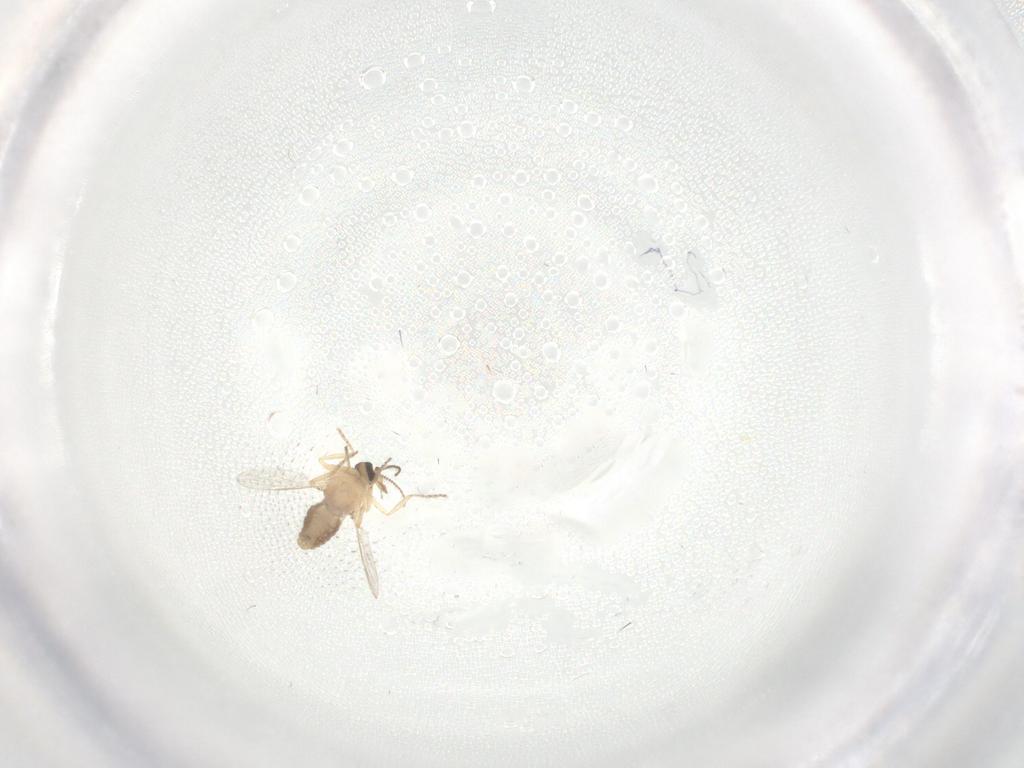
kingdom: Animalia
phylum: Arthropoda
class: Insecta
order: Diptera
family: Ceratopogonidae
